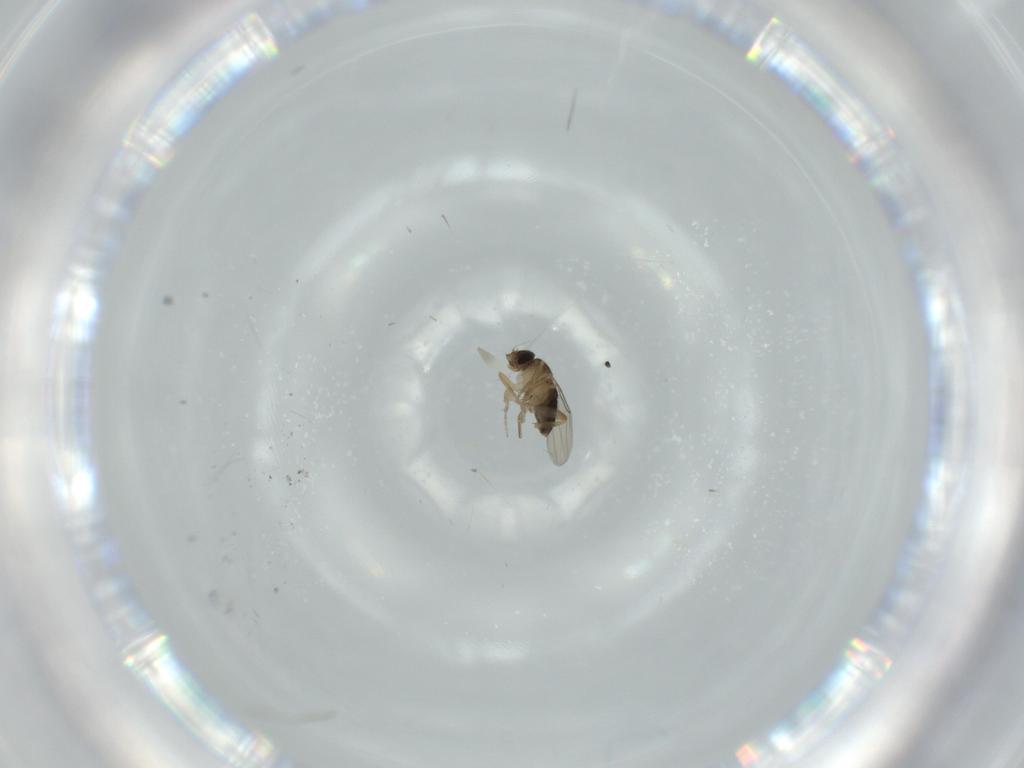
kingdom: Animalia
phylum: Arthropoda
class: Insecta
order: Diptera
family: Phoridae
